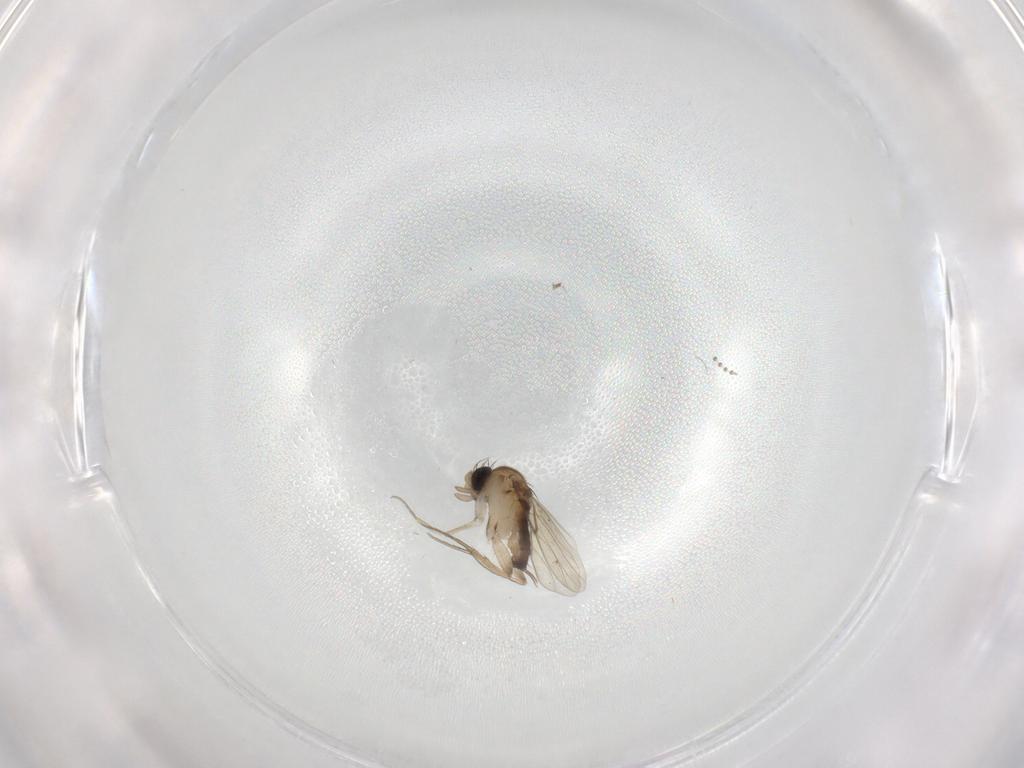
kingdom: Animalia
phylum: Arthropoda
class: Insecta
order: Diptera
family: Psychodidae
